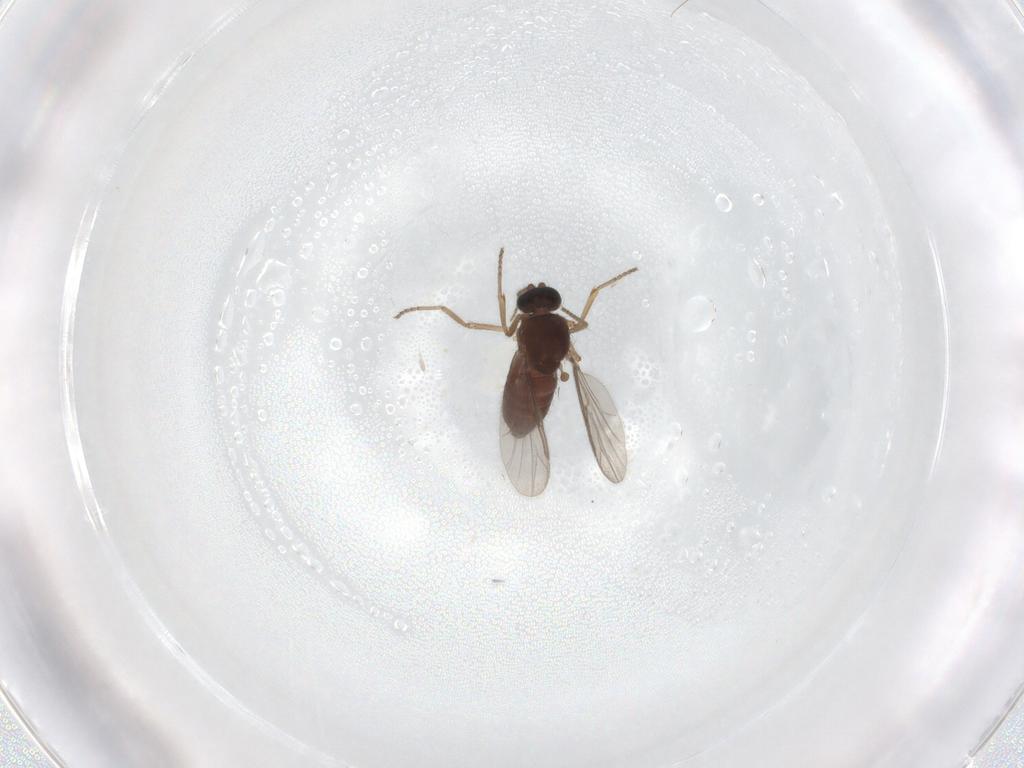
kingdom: Animalia
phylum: Arthropoda
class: Insecta
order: Diptera
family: Ceratopogonidae
